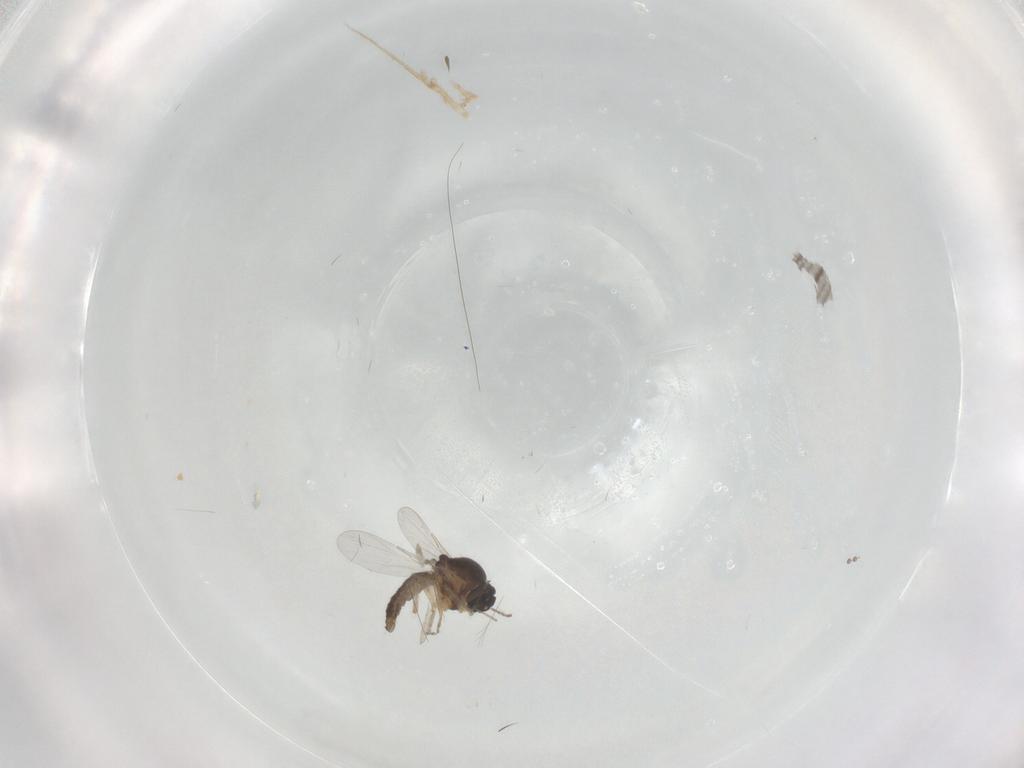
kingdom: Animalia
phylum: Arthropoda
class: Insecta
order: Diptera
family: Ceratopogonidae
